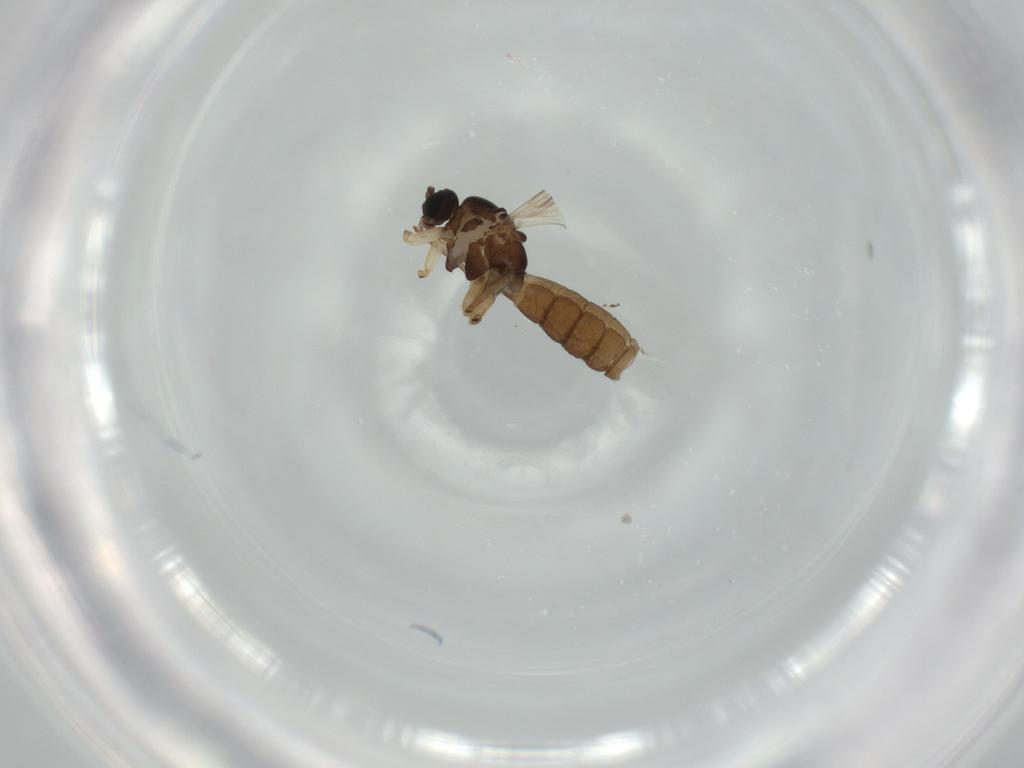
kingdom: Animalia
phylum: Arthropoda
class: Insecta
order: Diptera
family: Sciaridae
